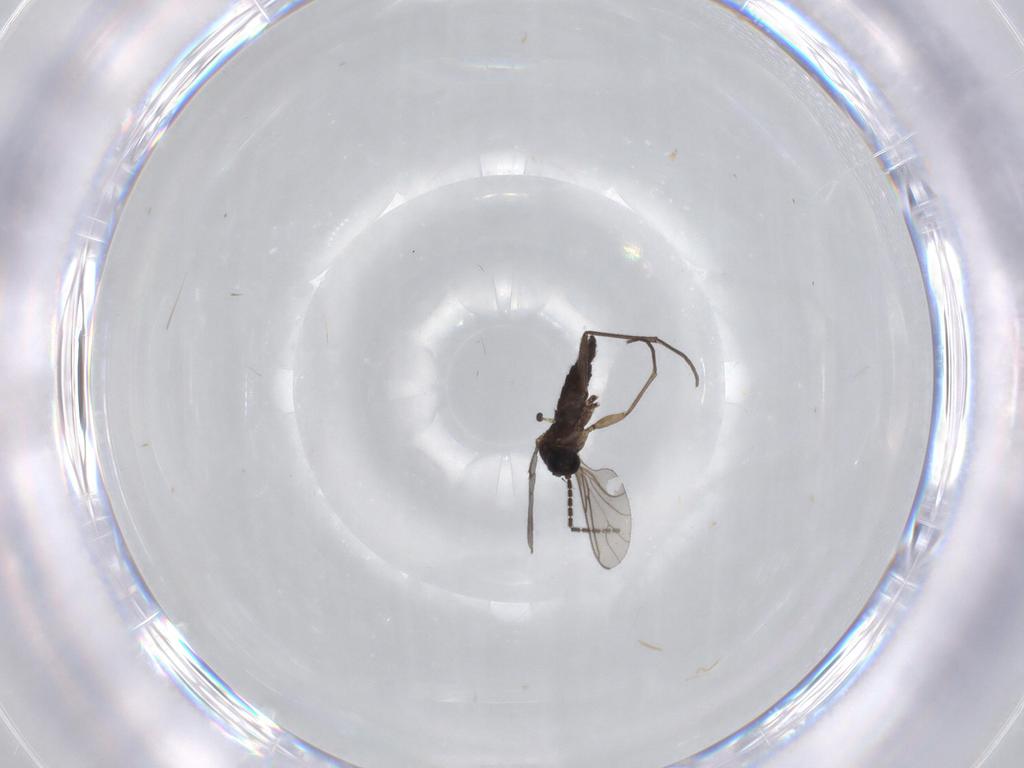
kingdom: Animalia
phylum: Arthropoda
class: Insecta
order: Diptera
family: Sciaridae
